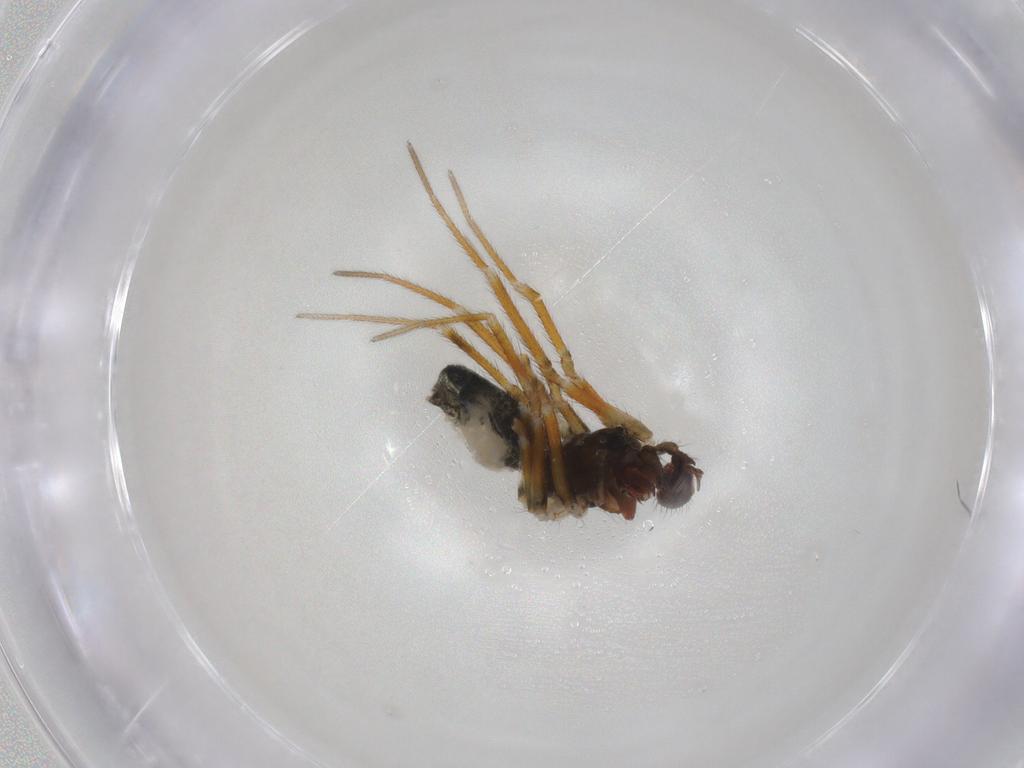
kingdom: Animalia
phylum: Arthropoda
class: Arachnida
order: Araneae
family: Linyphiidae
